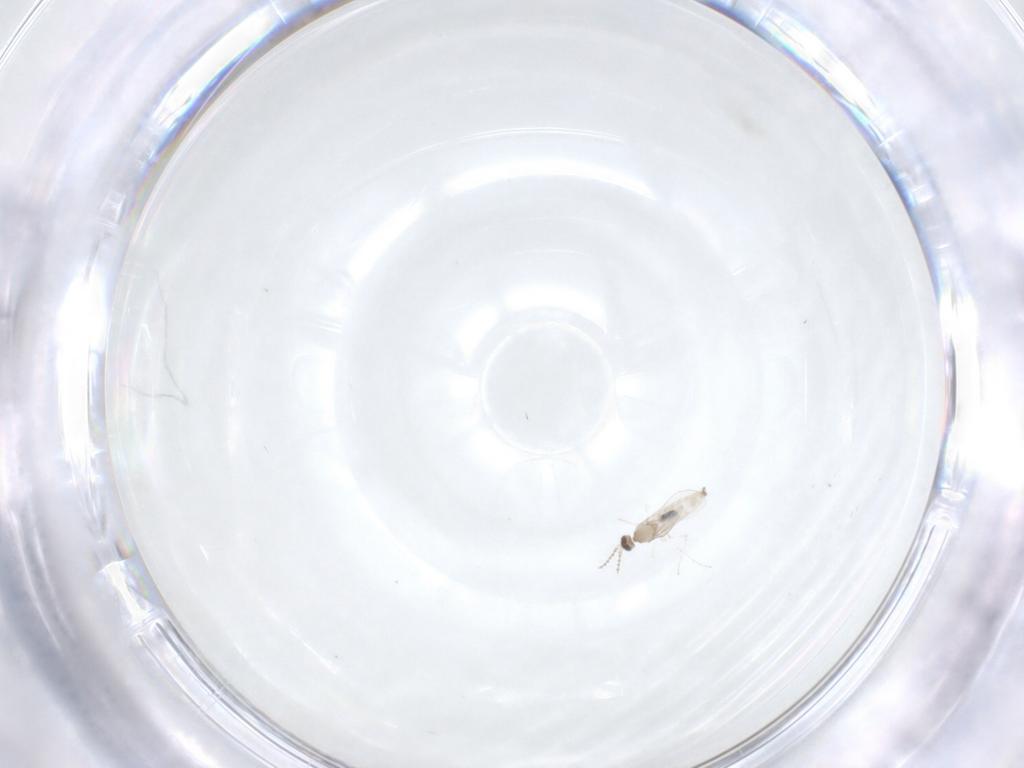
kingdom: Animalia
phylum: Arthropoda
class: Insecta
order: Diptera
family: Cecidomyiidae
